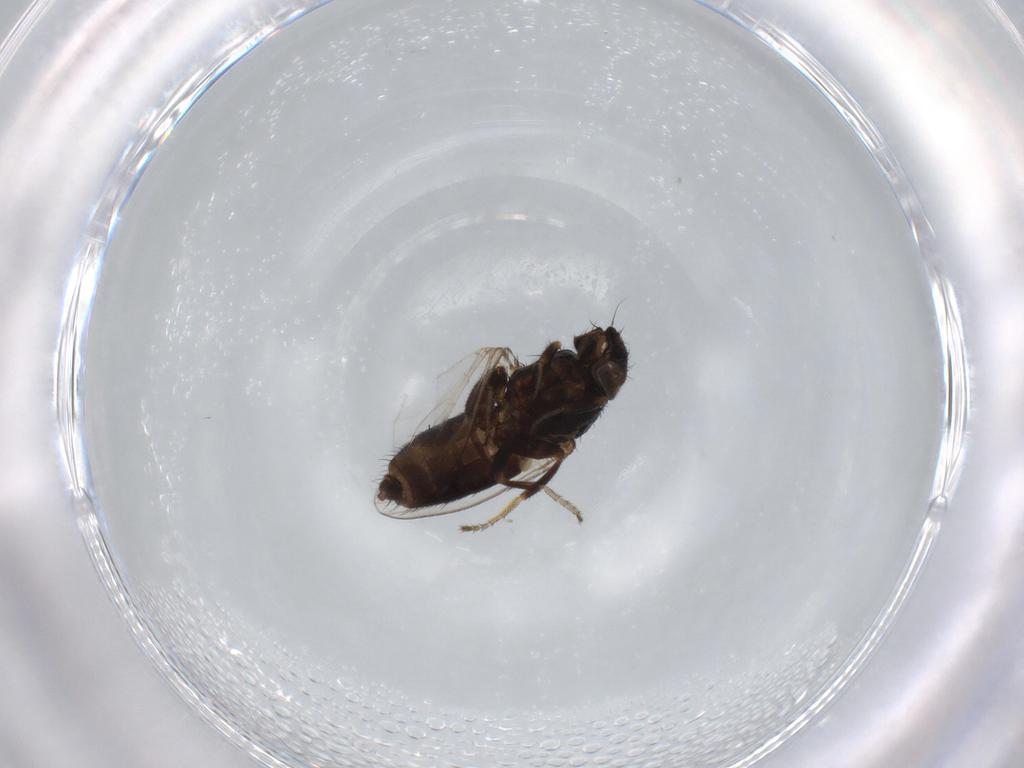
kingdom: Animalia
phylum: Arthropoda
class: Insecta
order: Diptera
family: Milichiidae
